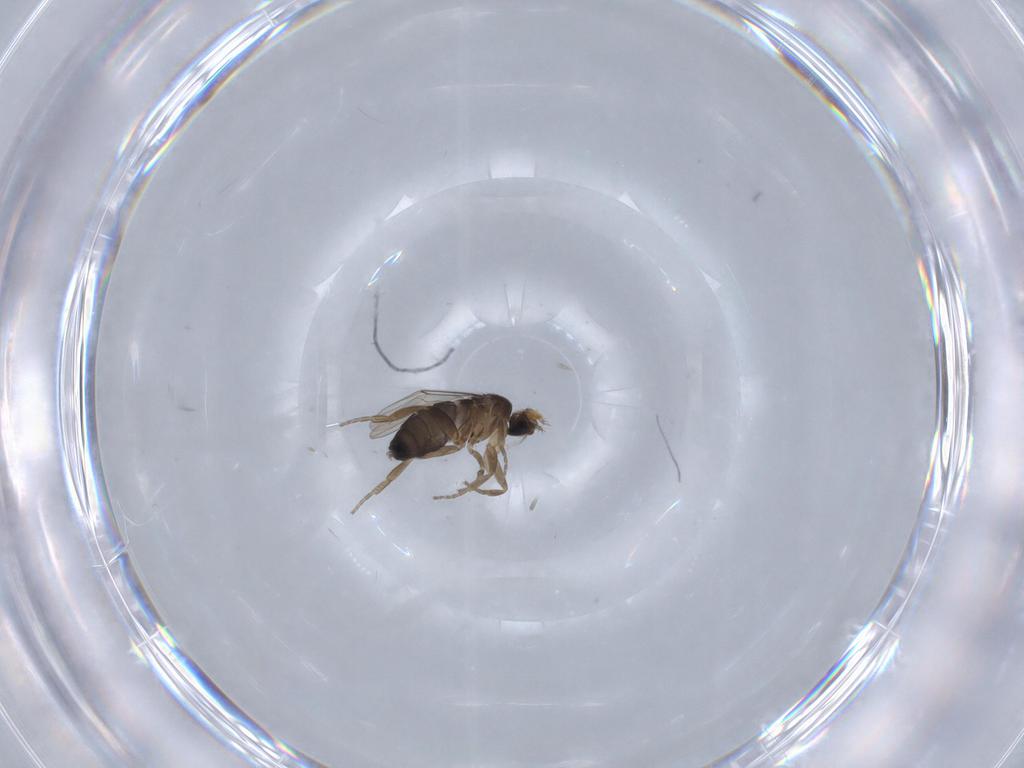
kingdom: Animalia
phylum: Arthropoda
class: Insecta
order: Diptera
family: Phoridae
